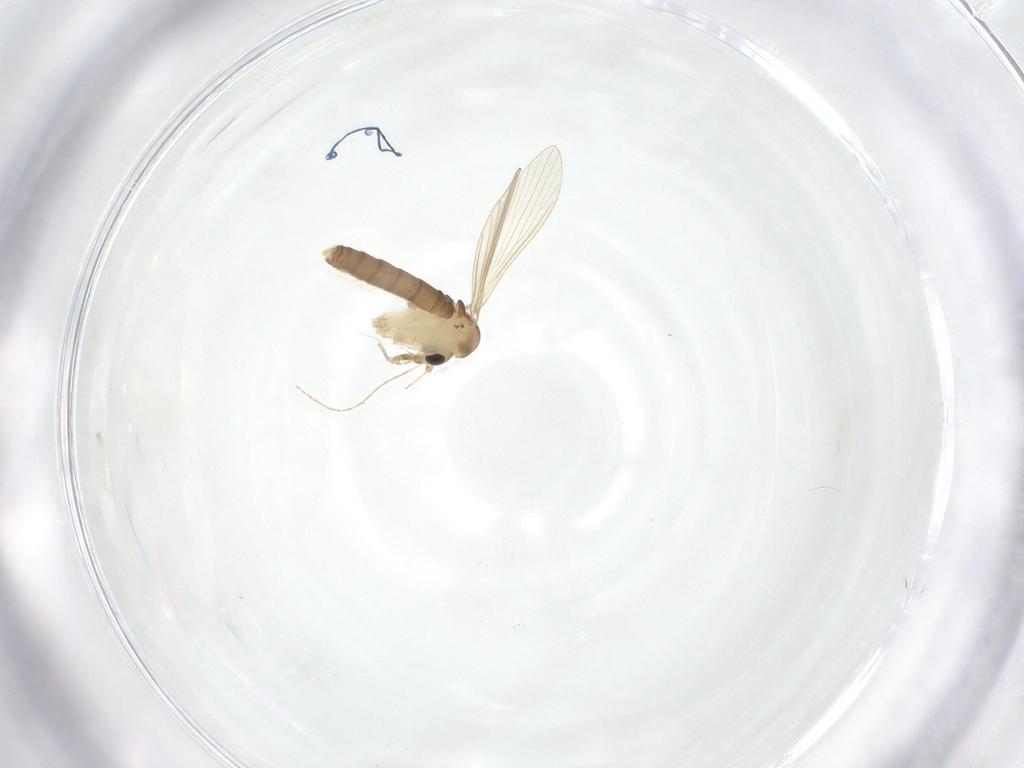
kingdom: Animalia
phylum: Arthropoda
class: Insecta
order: Diptera
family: Psychodidae
